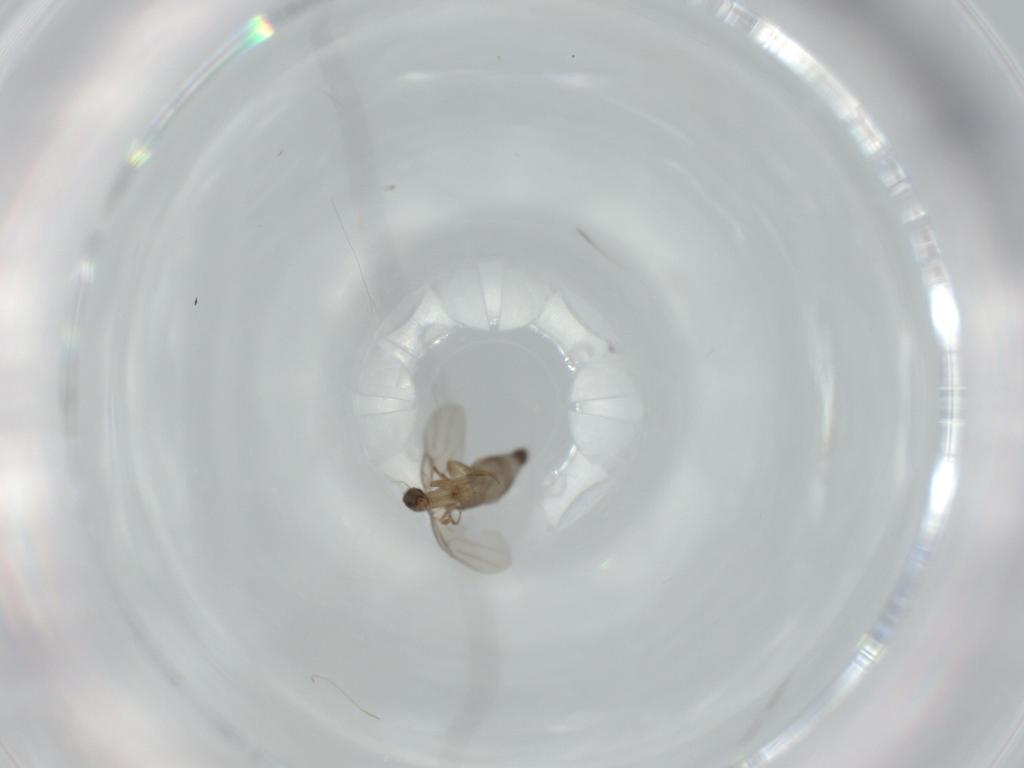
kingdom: Animalia
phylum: Arthropoda
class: Insecta
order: Diptera
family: Phoridae
